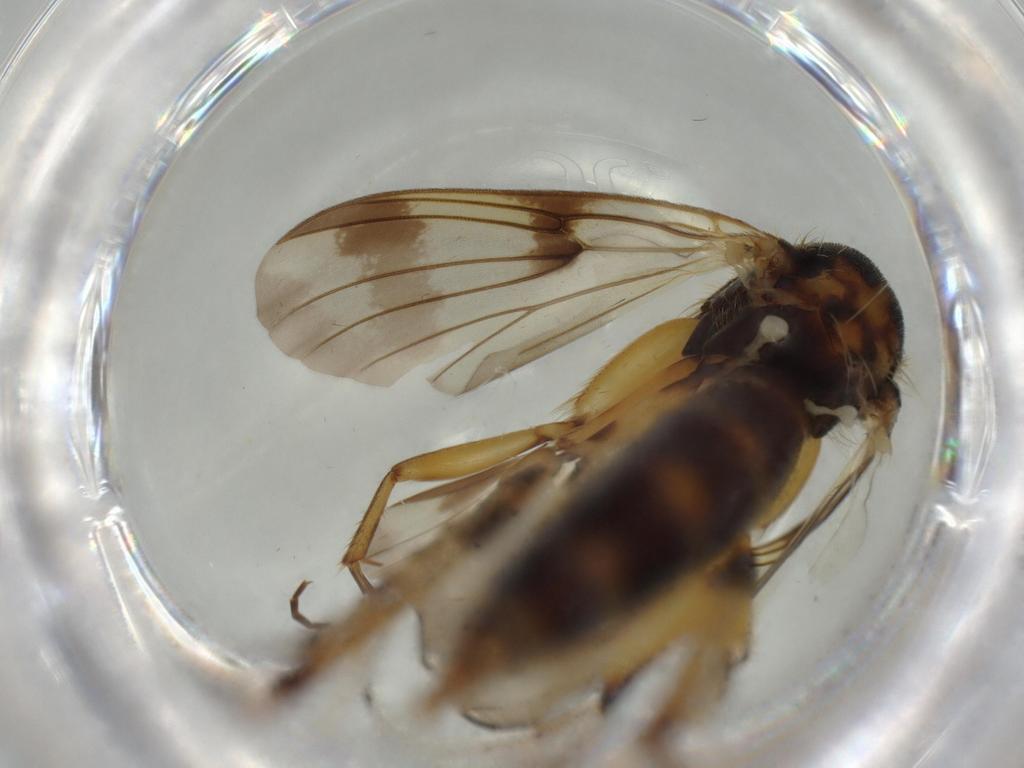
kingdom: Animalia
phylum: Arthropoda
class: Insecta
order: Diptera
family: Psychodidae
